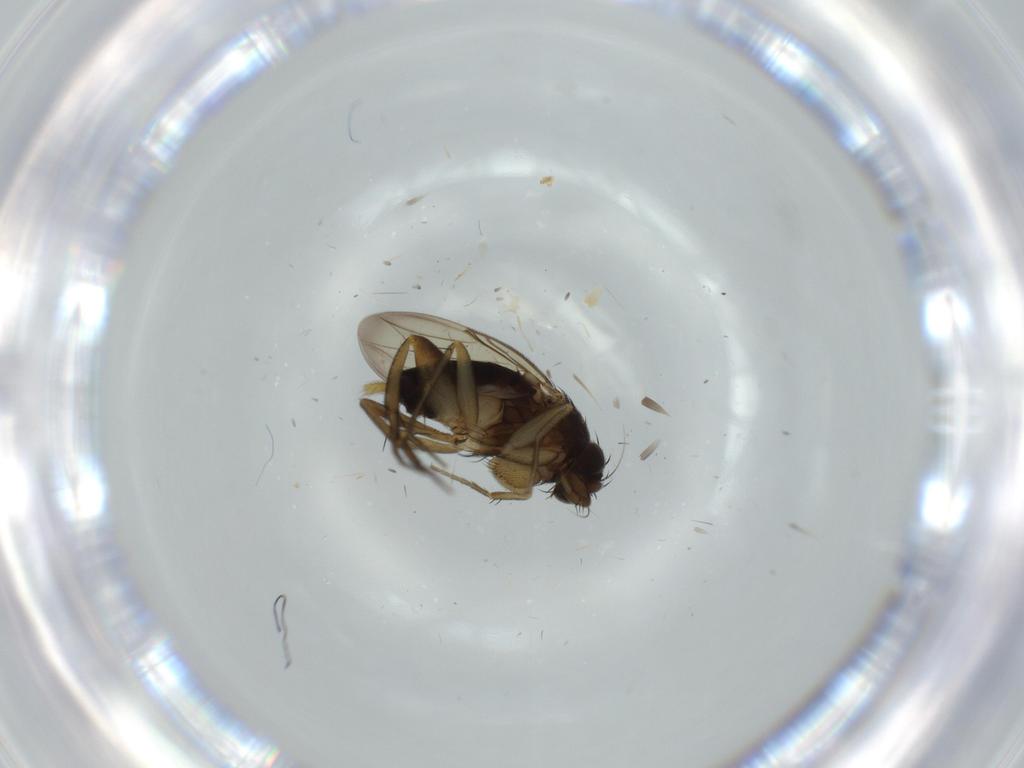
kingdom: Animalia
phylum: Arthropoda
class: Insecta
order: Diptera
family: Phoridae
